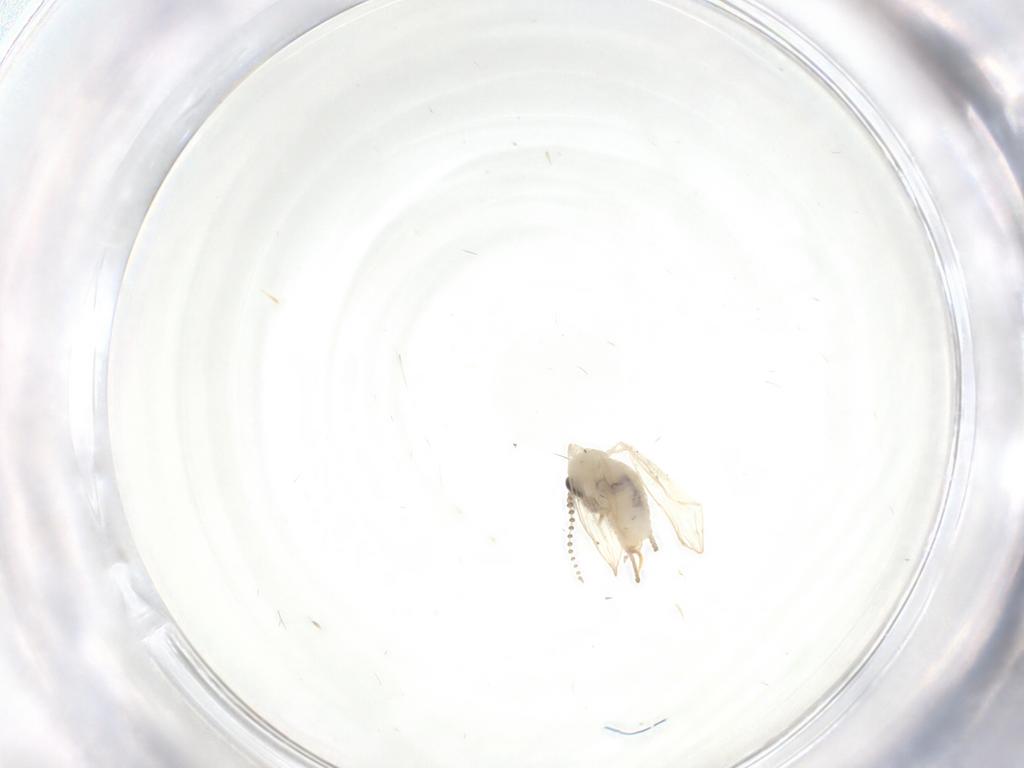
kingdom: Animalia
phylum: Arthropoda
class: Insecta
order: Diptera
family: Psychodidae
